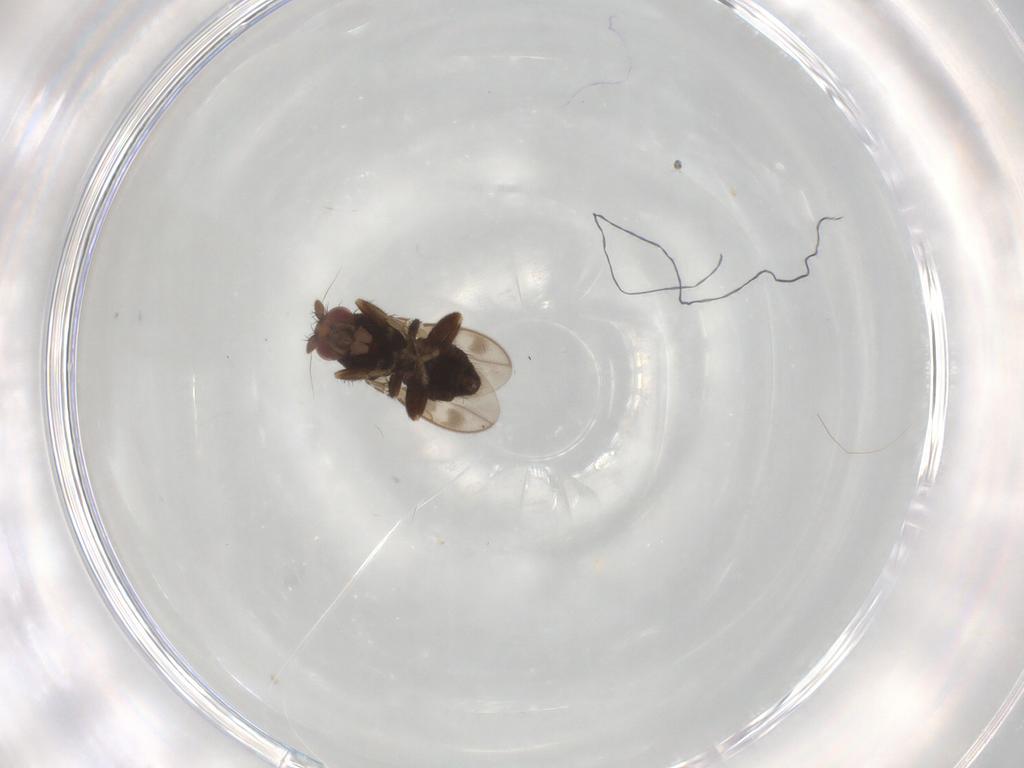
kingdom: Animalia
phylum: Arthropoda
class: Insecta
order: Diptera
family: Sphaeroceridae
